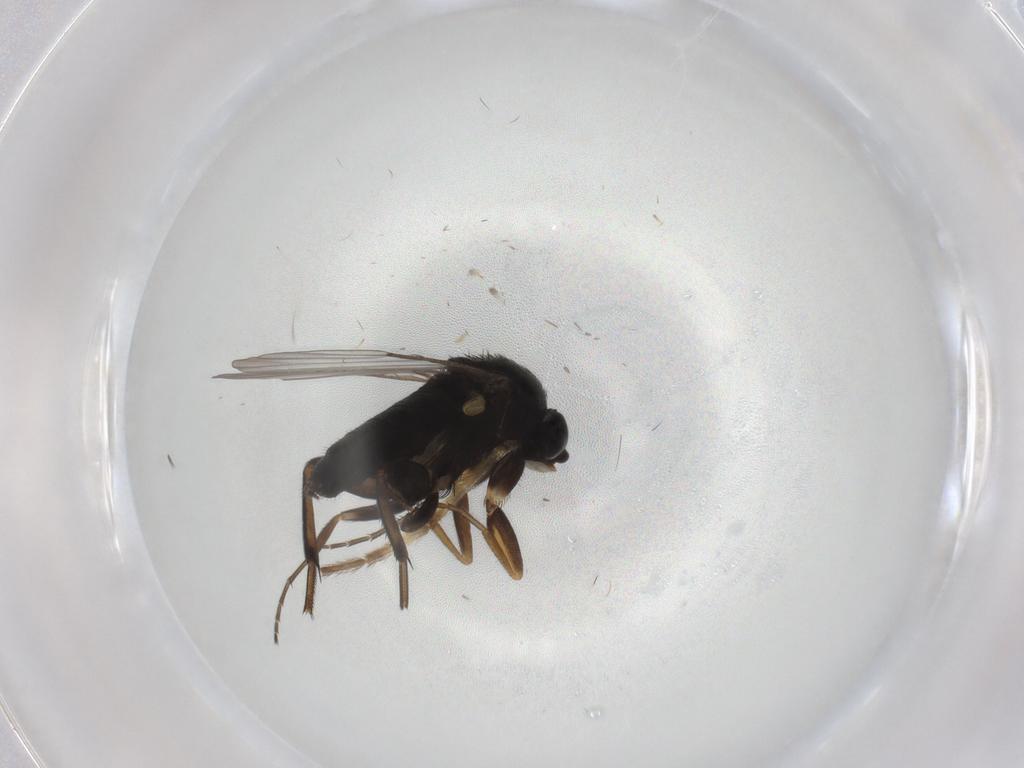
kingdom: Animalia
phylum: Arthropoda
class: Insecta
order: Diptera
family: Phoridae
